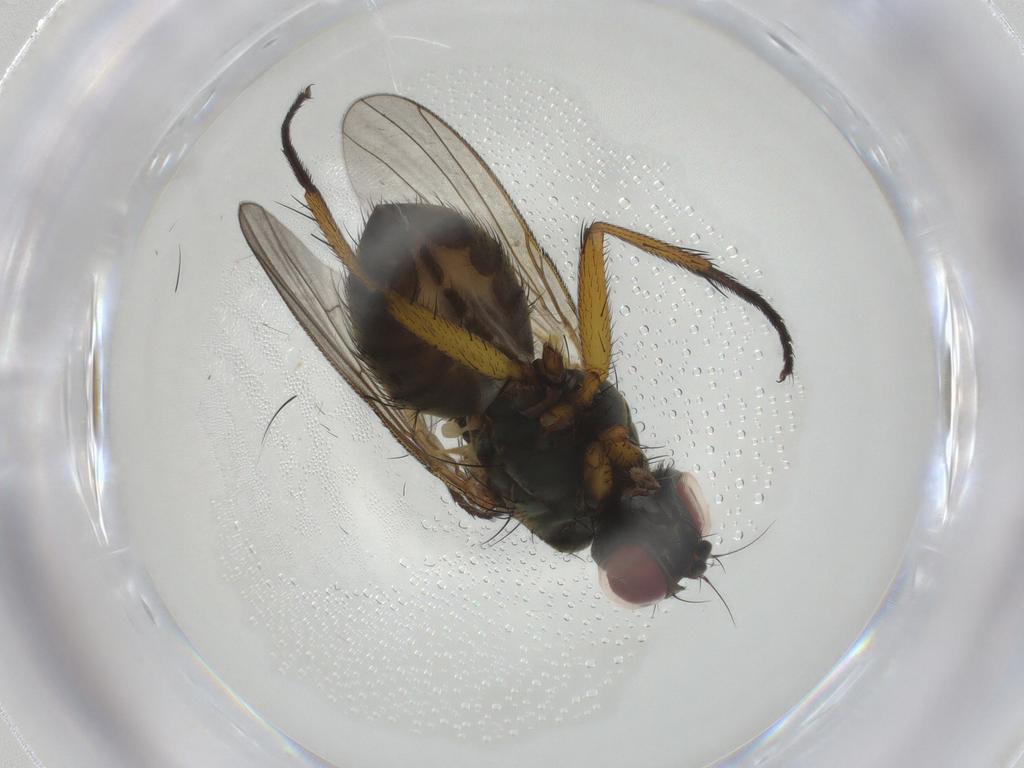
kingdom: Animalia
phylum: Arthropoda
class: Insecta
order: Diptera
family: Muscidae
